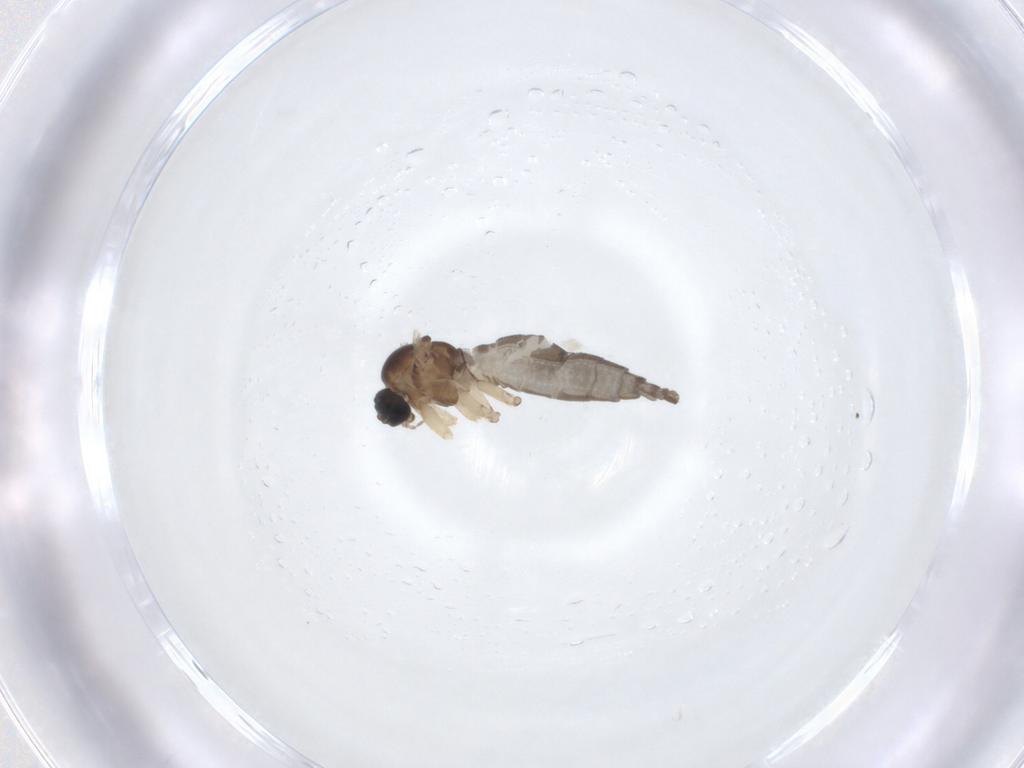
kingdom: Animalia
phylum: Arthropoda
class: Insecta
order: Diptera
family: Sciaridae
